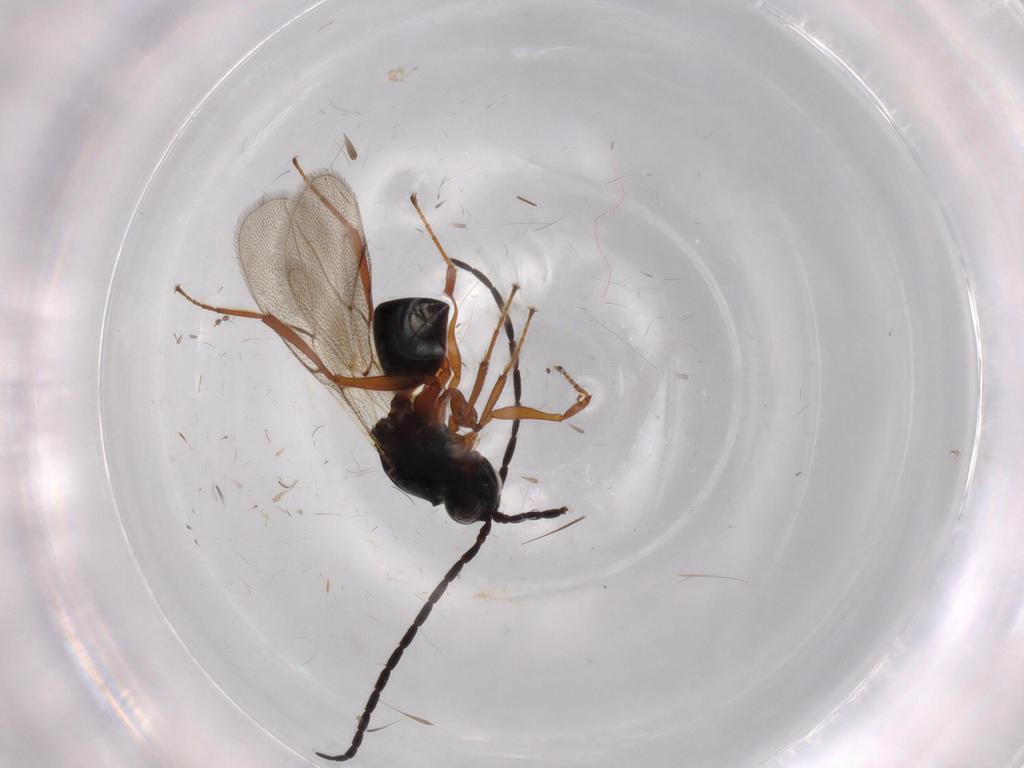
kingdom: Animalia
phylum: Arthropoda
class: Insecta
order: Hymenoptera
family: Figitidae
